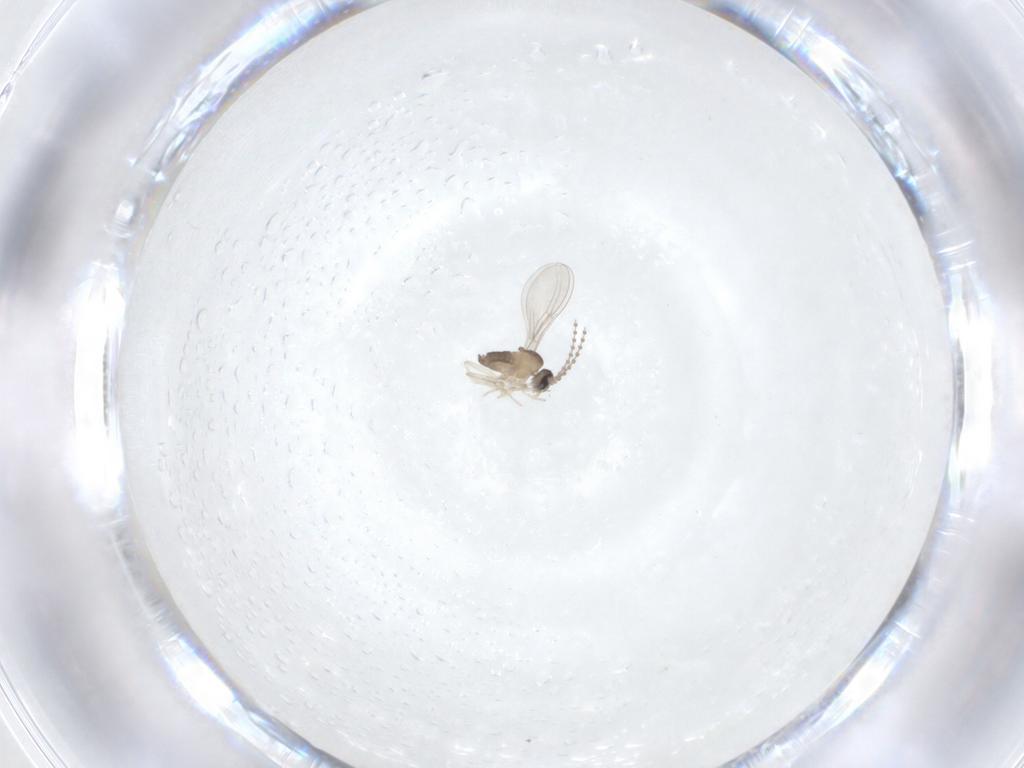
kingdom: Animalia
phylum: Arthropoda
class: Insecta
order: Diptera
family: Cecidomyiidae
